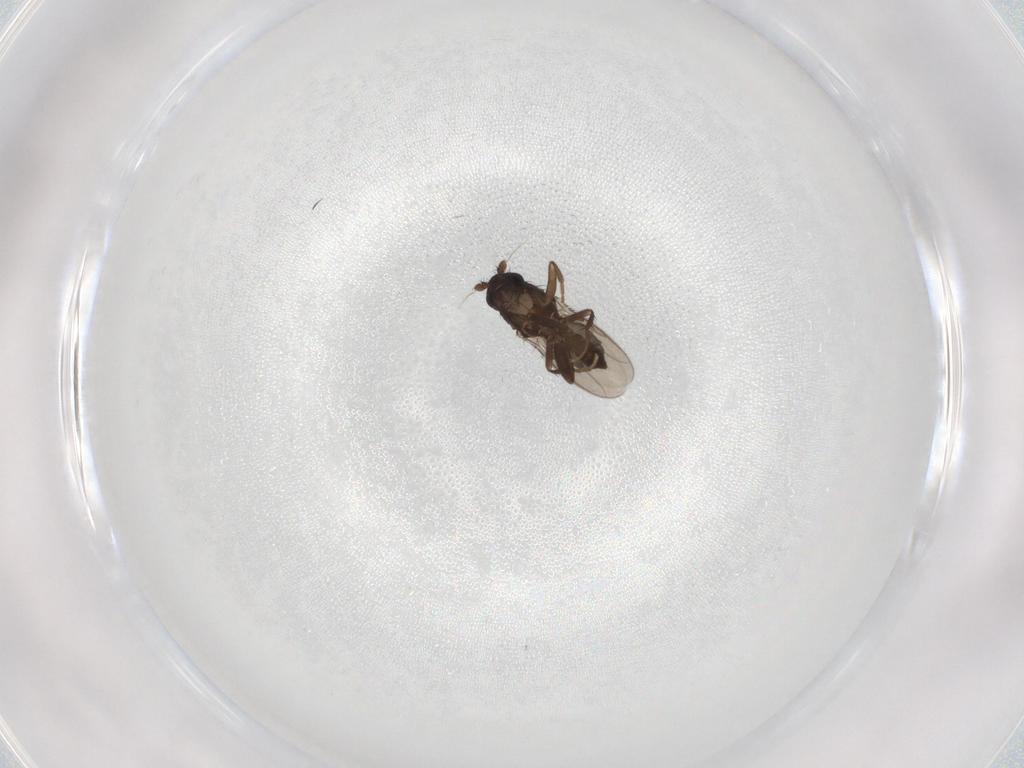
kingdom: Animalia
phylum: Arthropoda
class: Insecta
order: Diptera
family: Sphaeroceridae
